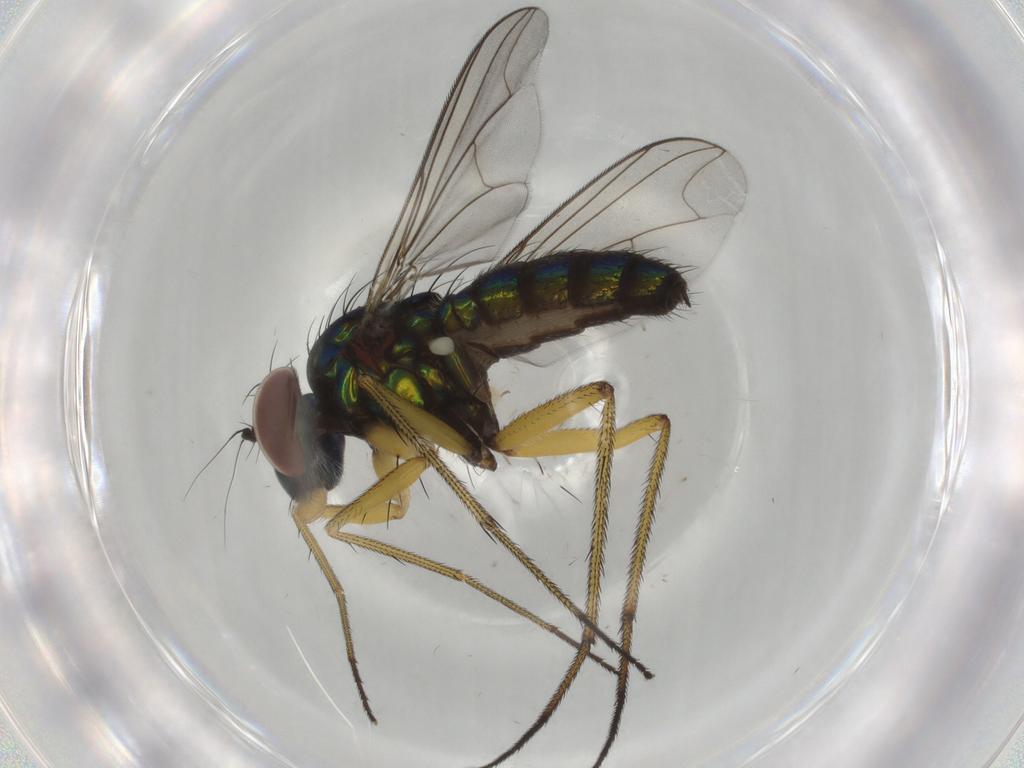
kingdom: Animalia
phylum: Arthropoda
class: Insecta
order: Diptera
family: Dolichopodidae
